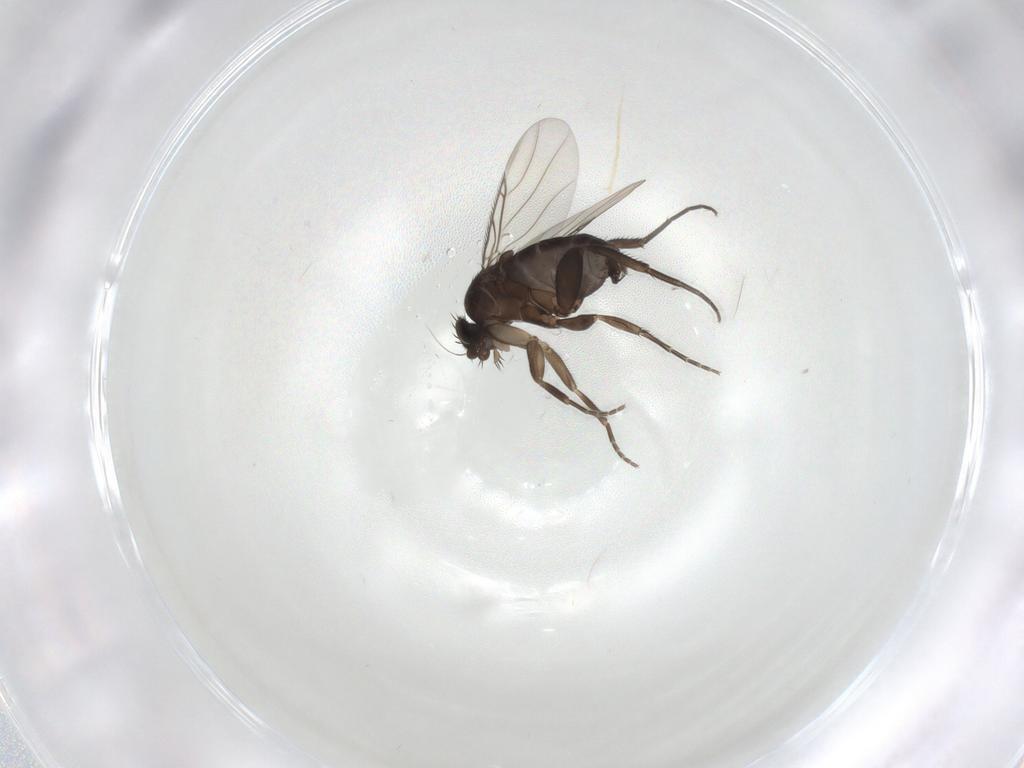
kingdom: Animalia
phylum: Arthropoda
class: Insecta
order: Diptera
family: Phoridae
